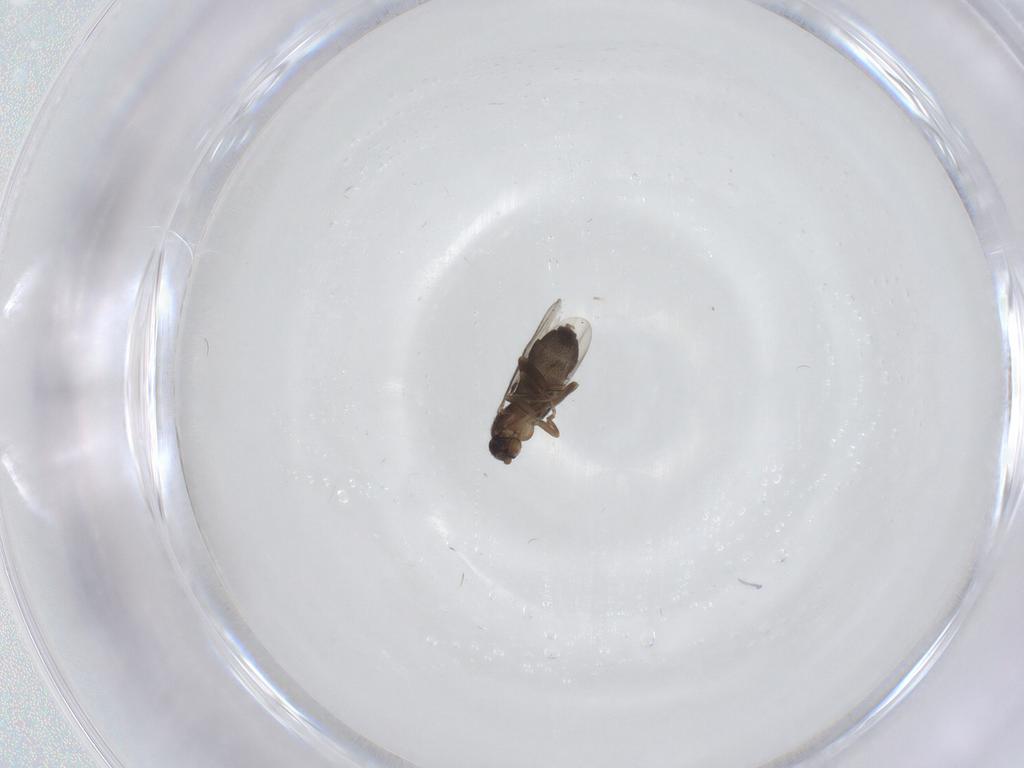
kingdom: Animalia
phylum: Arthropoda
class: Insecta
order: Diptera
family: Phoridae
